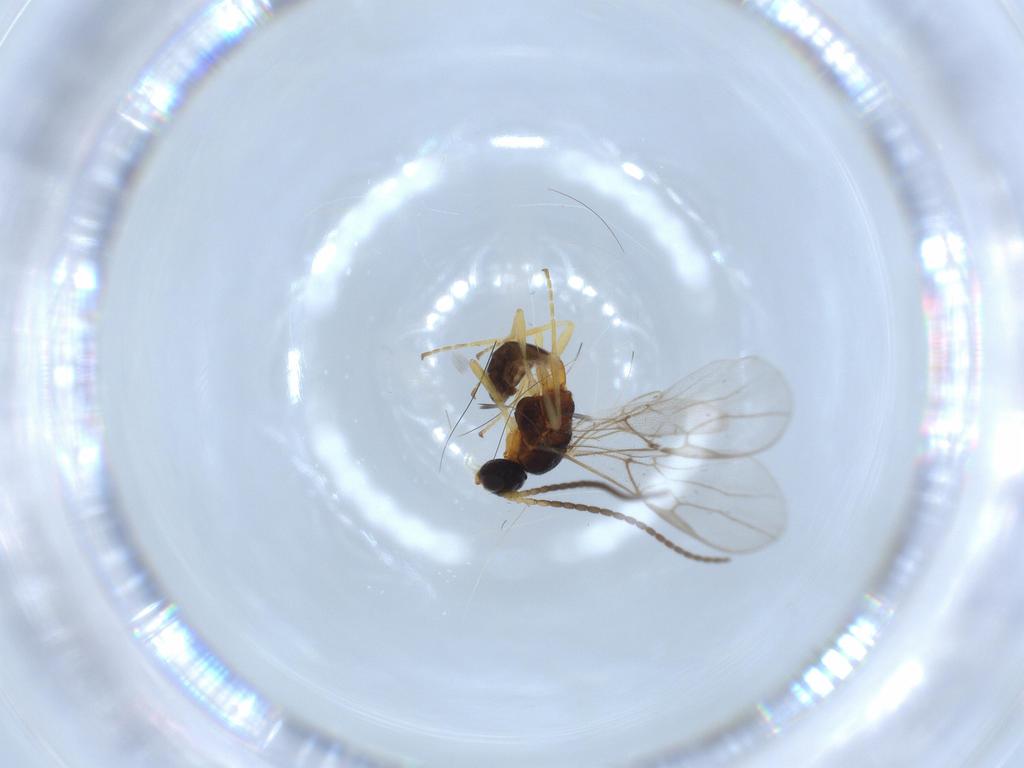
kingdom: Animalia
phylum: Arthropoda
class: Insecta
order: Hymenoptera
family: Braconidae
